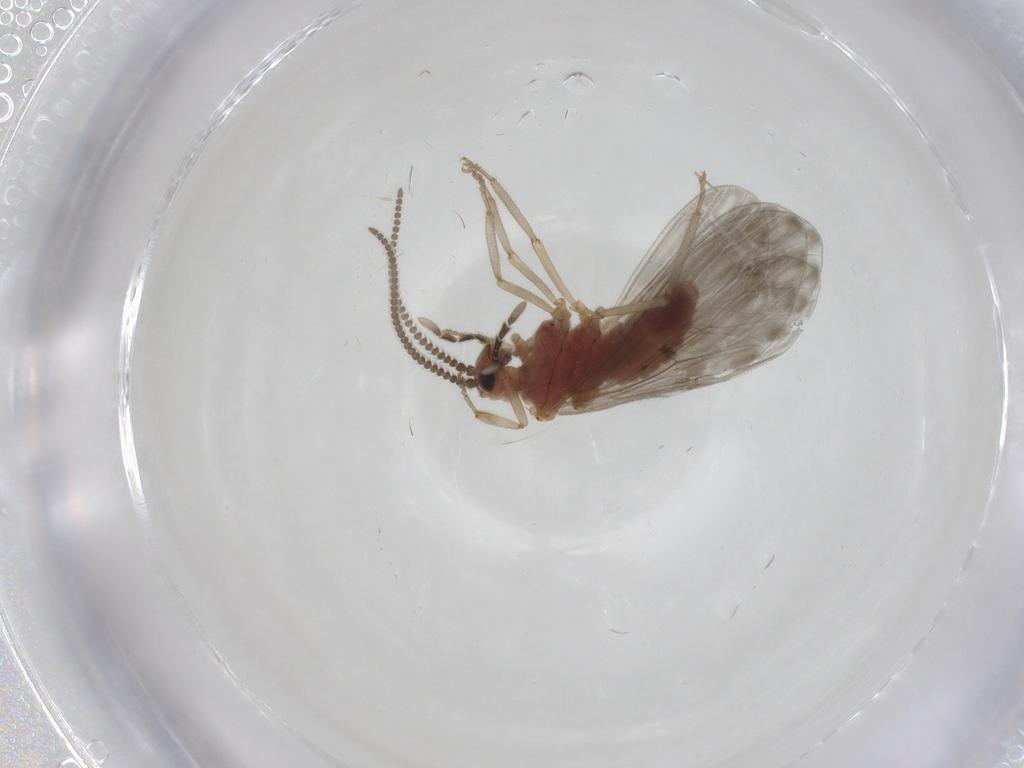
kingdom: Animalia
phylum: Arthropoda
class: Insecta
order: Neuroptera
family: Coniopterygidae
